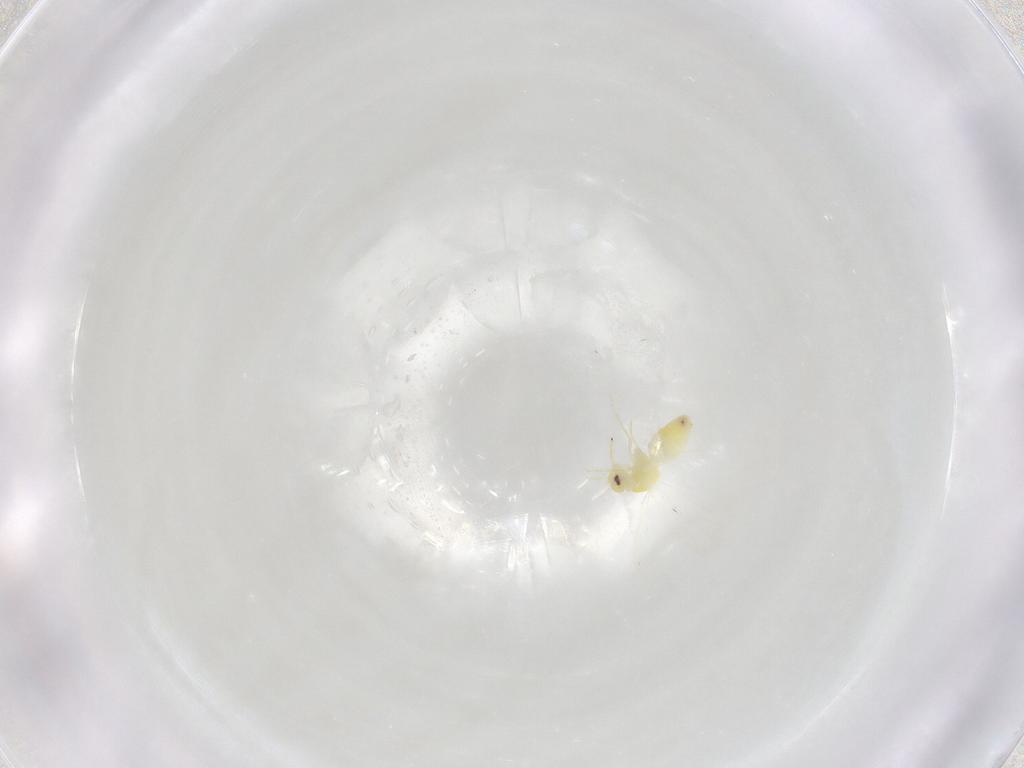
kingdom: Animalia
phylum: Arthropoda
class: Insecta
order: Hemiptera
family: Aleyrodidae
